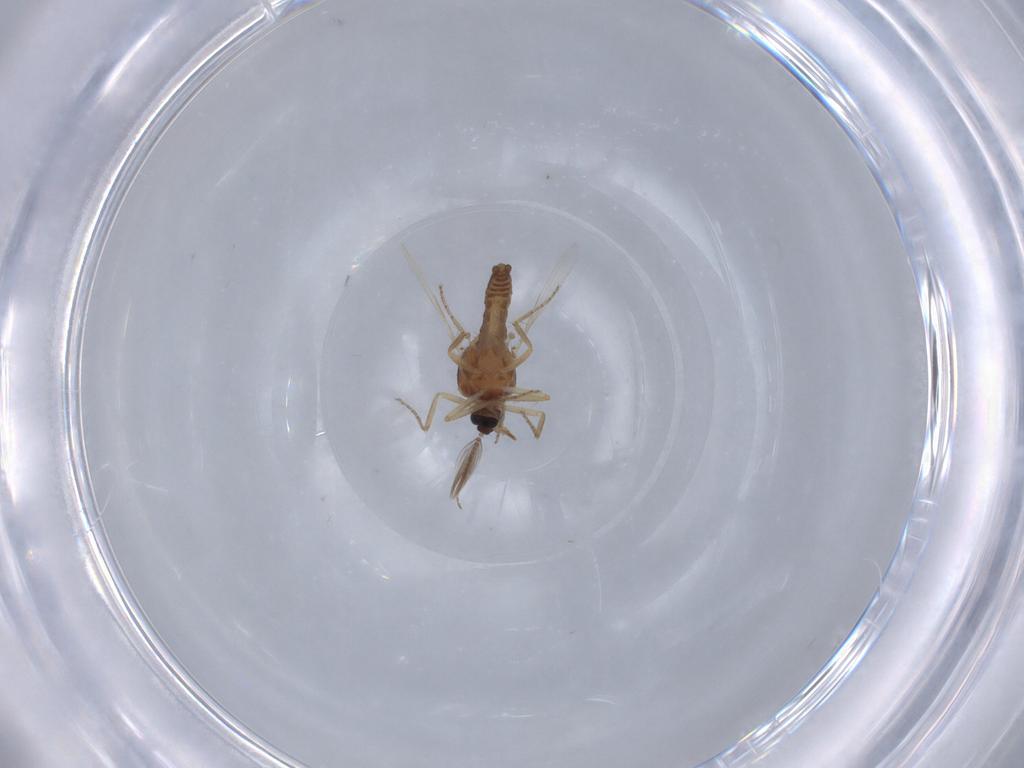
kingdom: Animalia
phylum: Arthropoda
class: Insecta
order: Diptera
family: Ceratopogonidae
